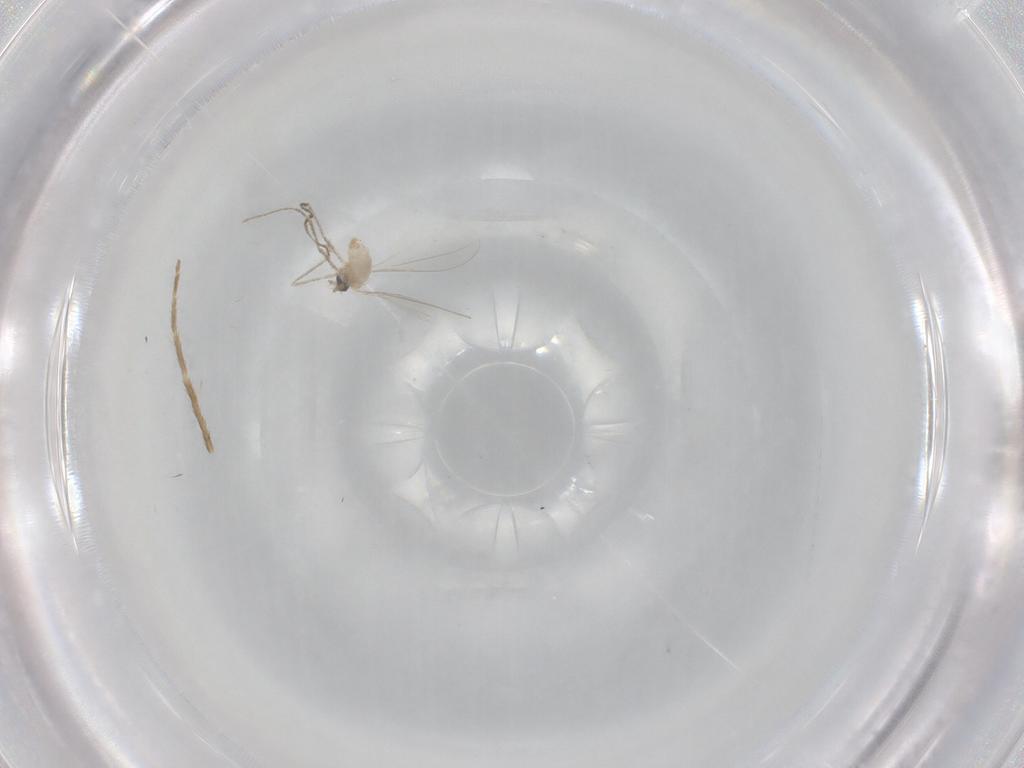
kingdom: Animalia
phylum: Arthropoda
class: Insecta
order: Diptera
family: Cecidomyiidae
